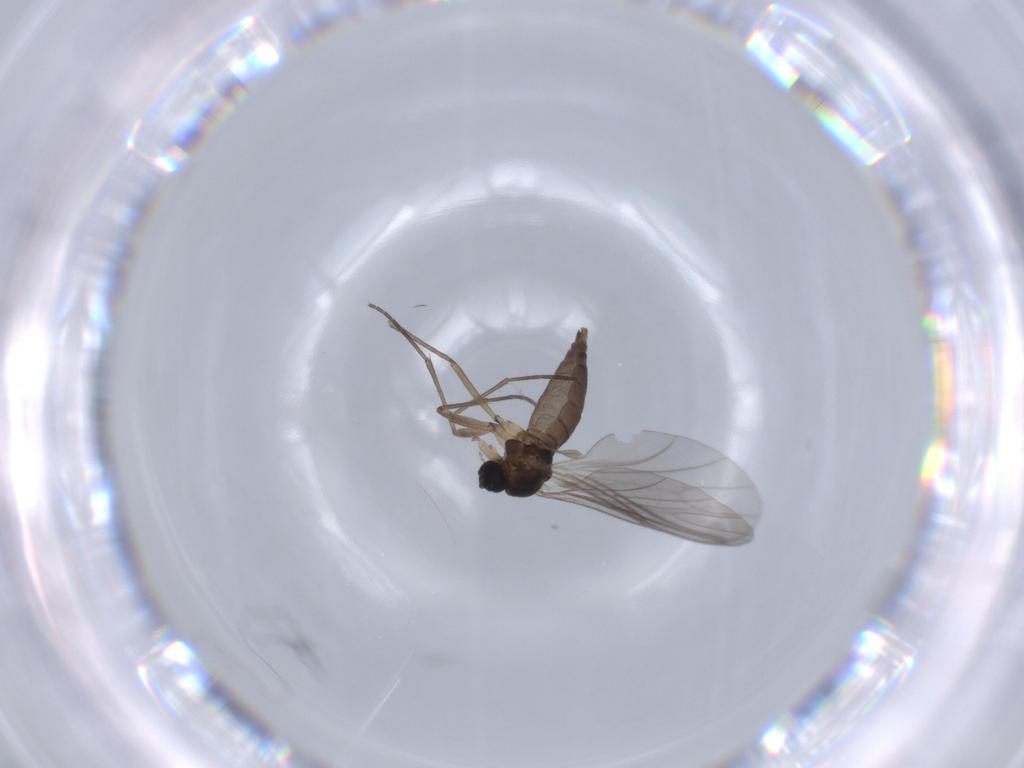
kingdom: Animalia
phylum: Arthropoda
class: Insecta
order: Diptera
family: Sciaridae
